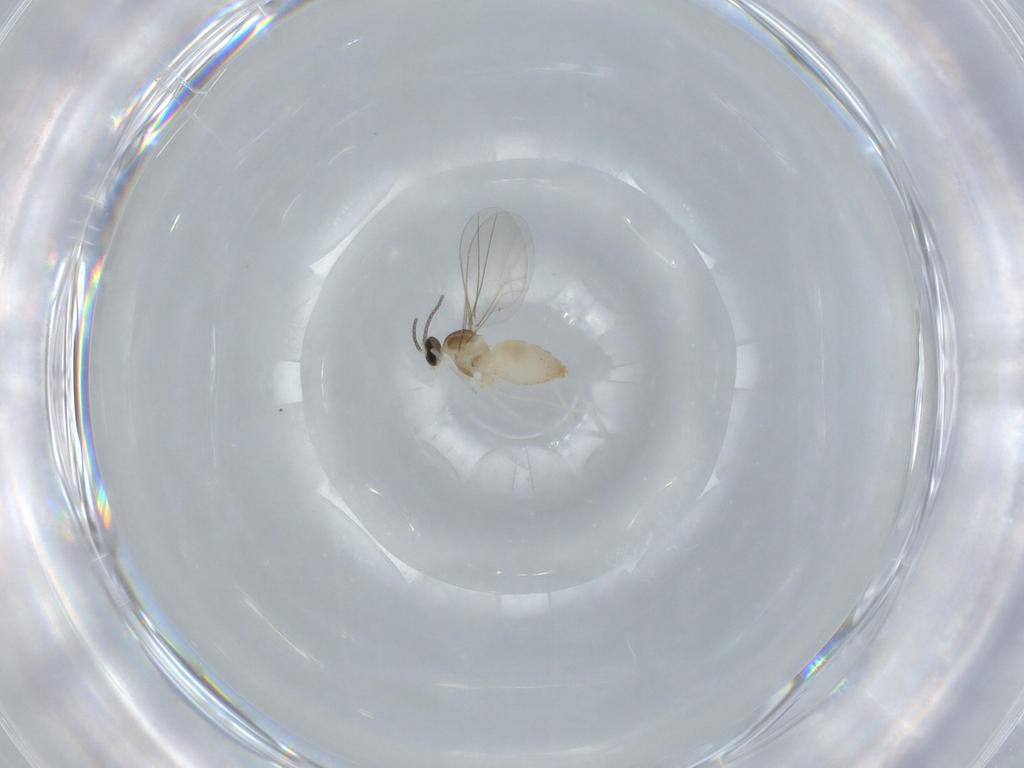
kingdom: Animalia
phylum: Arthropoda
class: Insecta
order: Diptera
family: Cecidomyiidae
